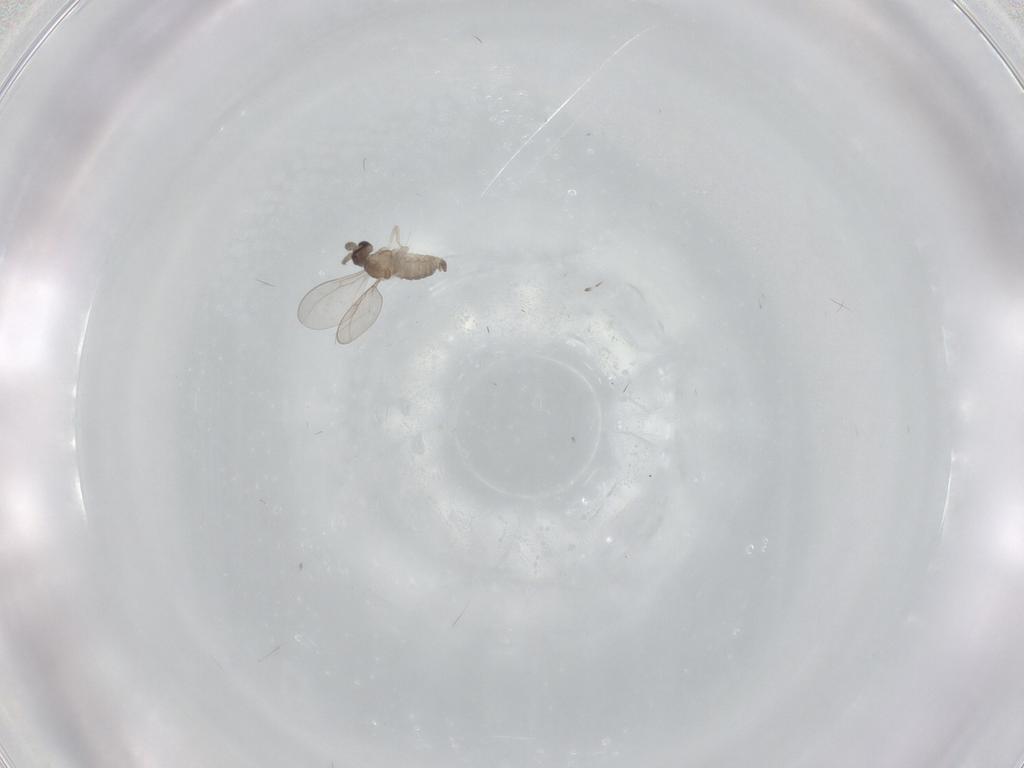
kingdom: Animalia
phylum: Arthropoda
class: Insecta
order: Diptera
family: Cecidomyiidae
